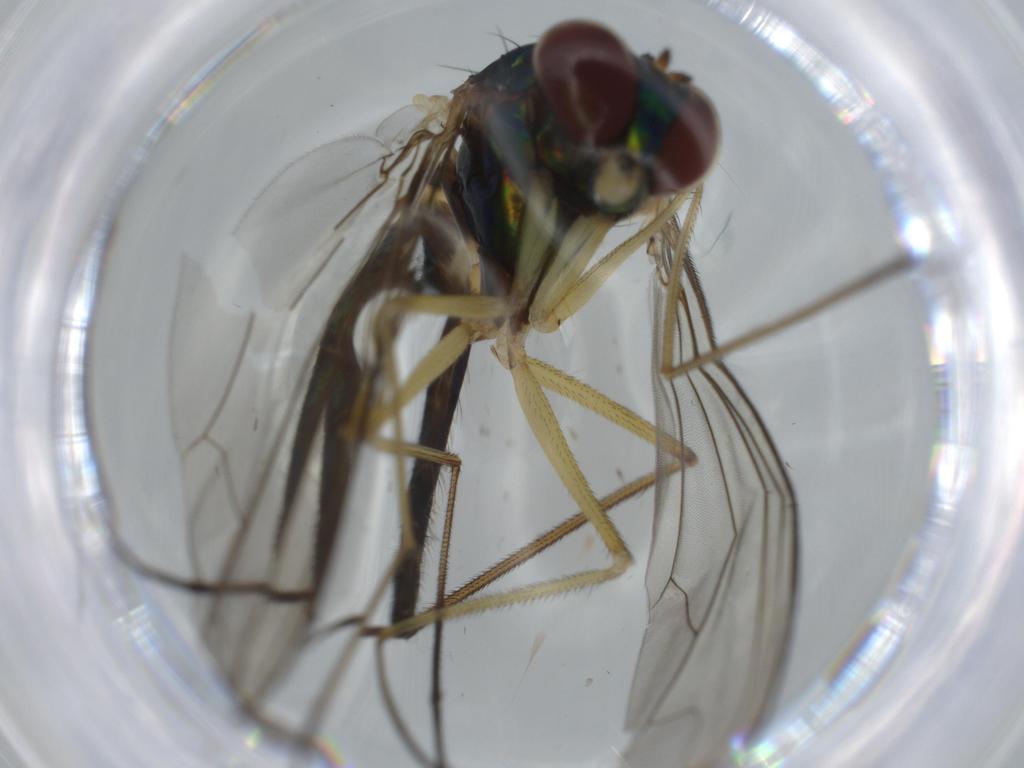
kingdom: Animalia
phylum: Arthropoda
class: Insecta
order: Diptera
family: Dolichopodidae
